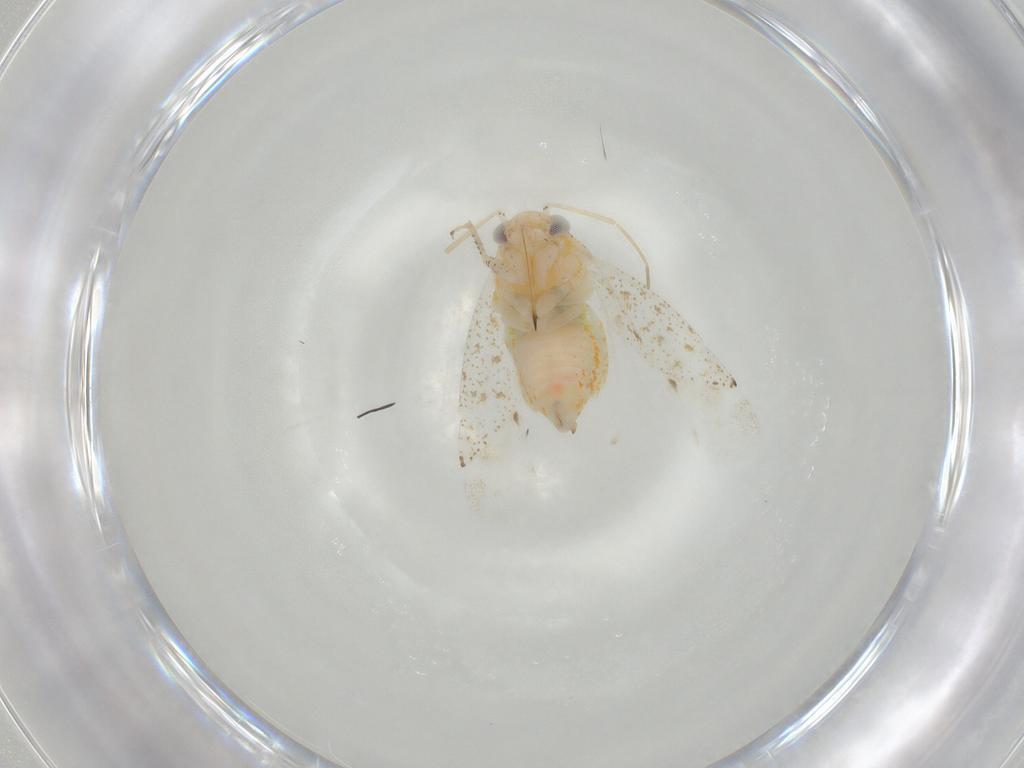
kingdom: Animalia
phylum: Arthropoda
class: Insecta
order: Hemiptera
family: Miridae
